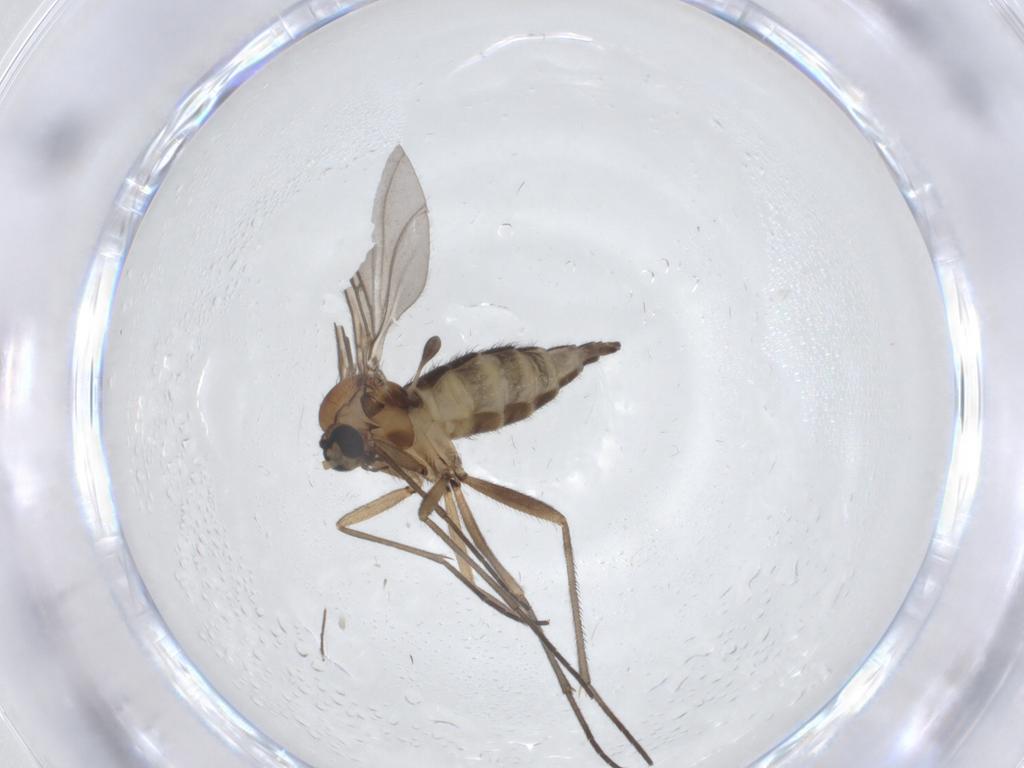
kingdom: Animalia
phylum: Arthropoda
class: Insecta
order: Diptera
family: Sciaridae
